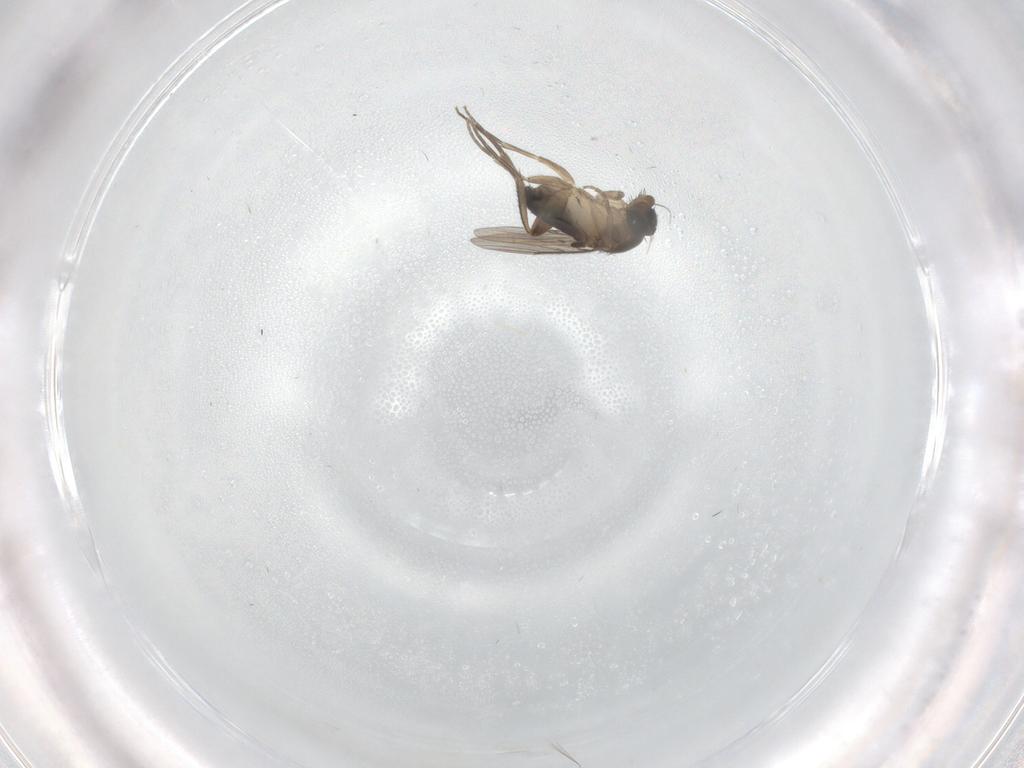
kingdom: Animalia
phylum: Arthropoda
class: Insecta
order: Diptera
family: Phoridae
